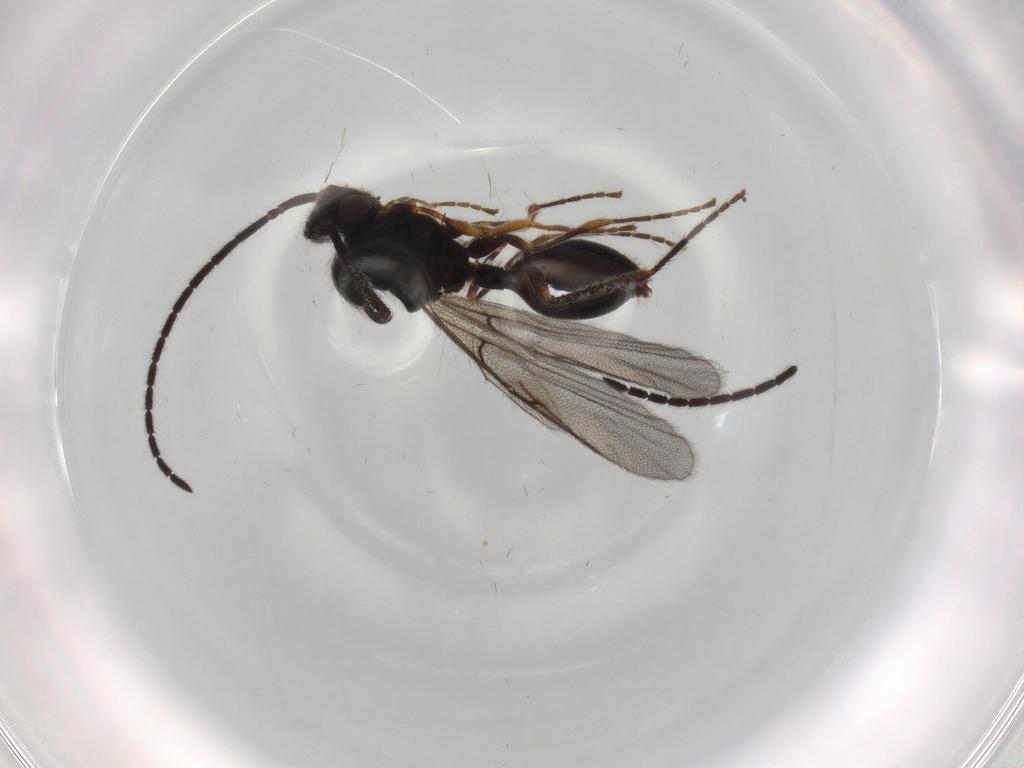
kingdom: Animalia
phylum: Arthropoda
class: Insecta
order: Hymenoptera
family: Diapriidae
